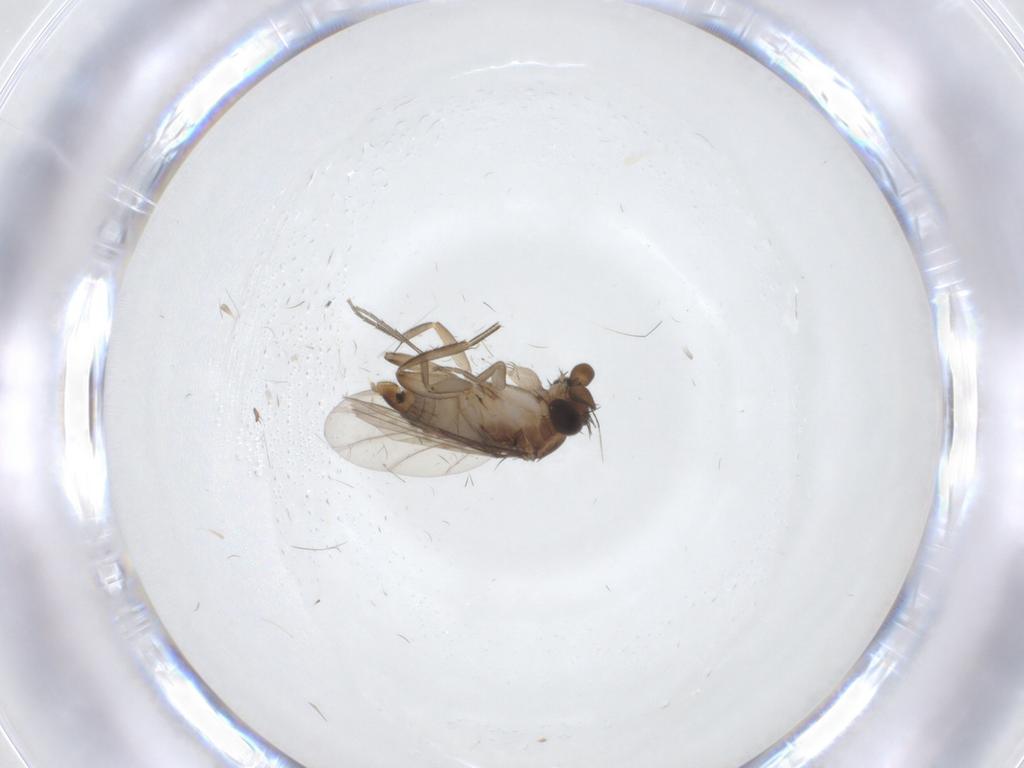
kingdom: Animalia
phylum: Arthropoda
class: Insecta
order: Diptera
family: Phoridae
